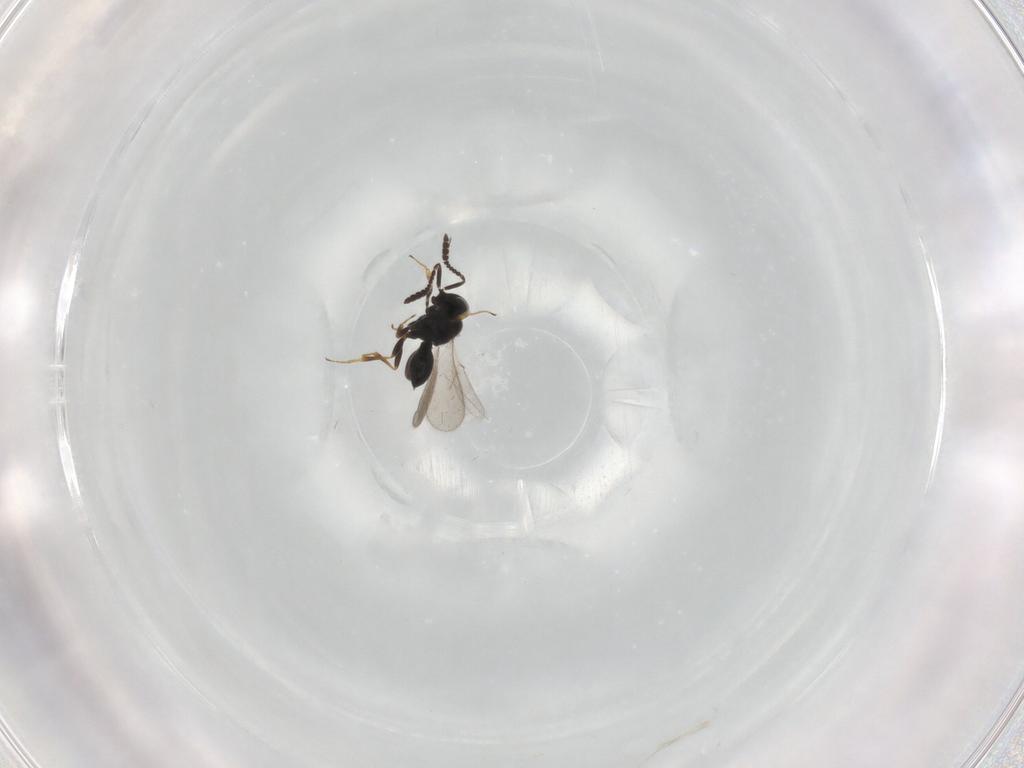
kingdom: Animalia
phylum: Arthropoda
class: Insecta
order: Hymenoptera
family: Scelionidae
